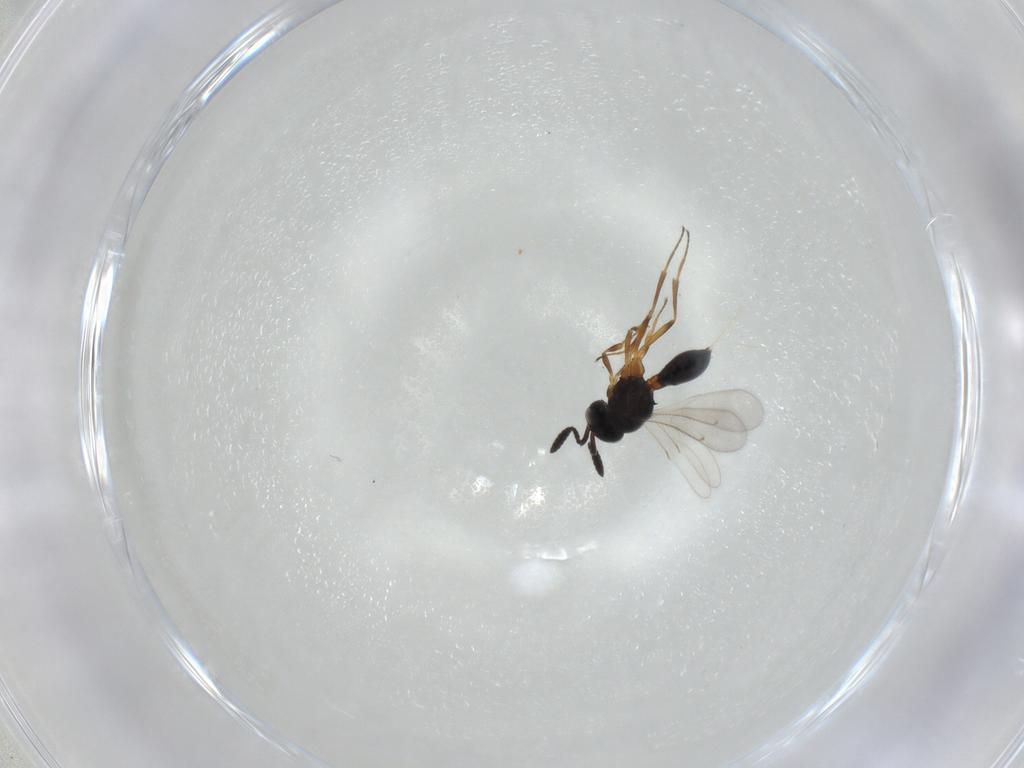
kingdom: Animalia
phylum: Arthropoda
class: Insecta
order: Hymenoptera
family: Scelionidae
